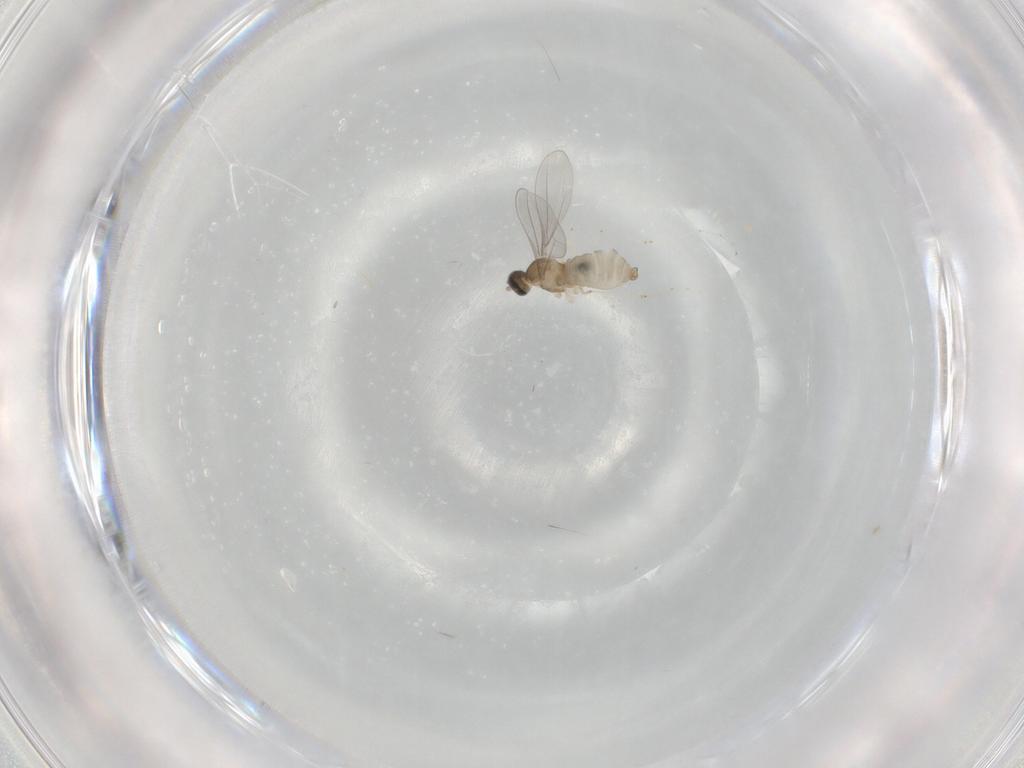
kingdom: Animalia
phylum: Arthropoda
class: Insecta
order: Diptera
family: Cecidomyiidae
